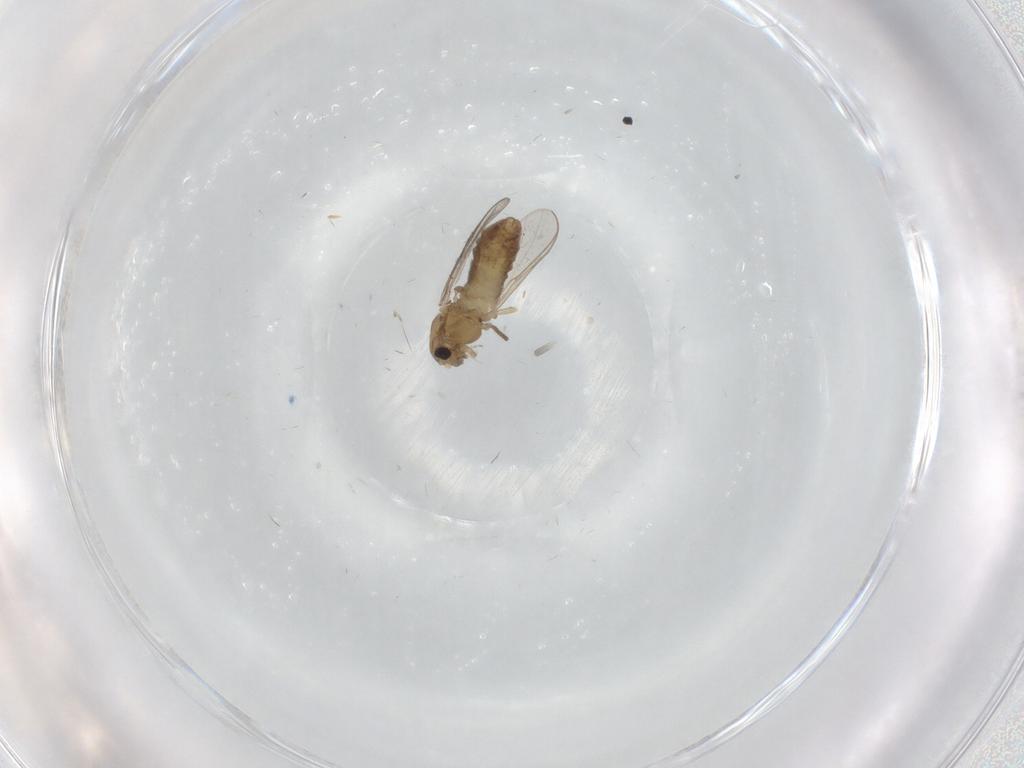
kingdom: Animalia
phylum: Arthropoda
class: Insecta
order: Diptera
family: Chironomidae
